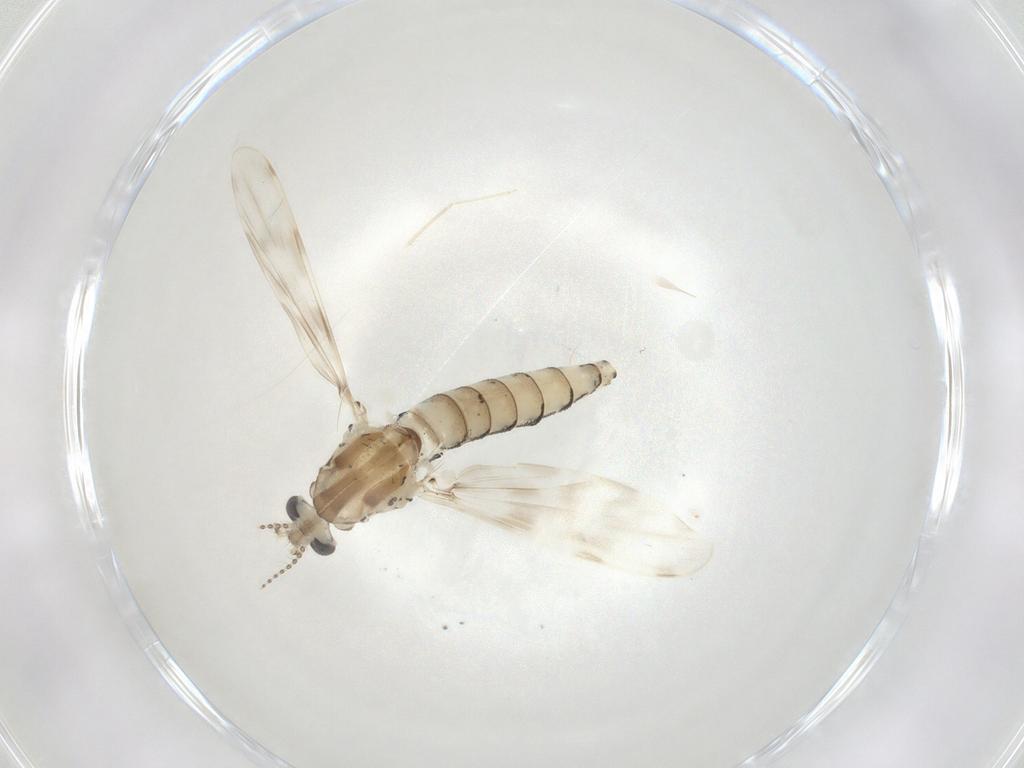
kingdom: Animalia
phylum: Arthropoda
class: Insecta
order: Diptera
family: Chaoboridae
